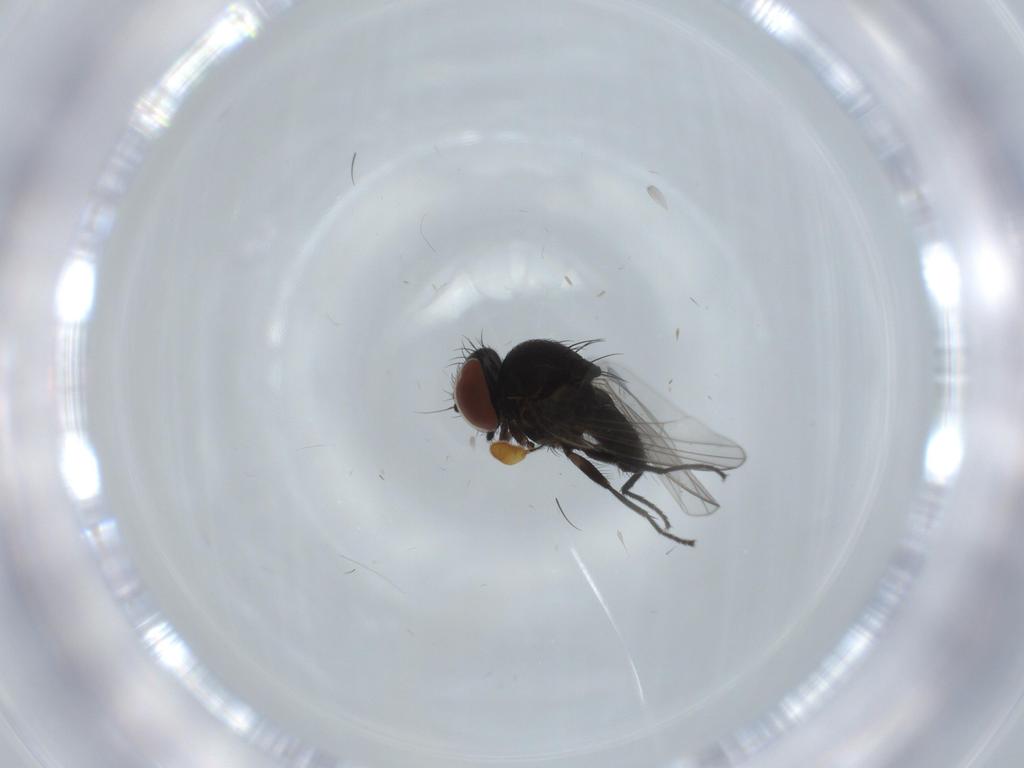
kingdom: Animalia
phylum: Arthropoda
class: Insecta
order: Diptera
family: Milichiidae
